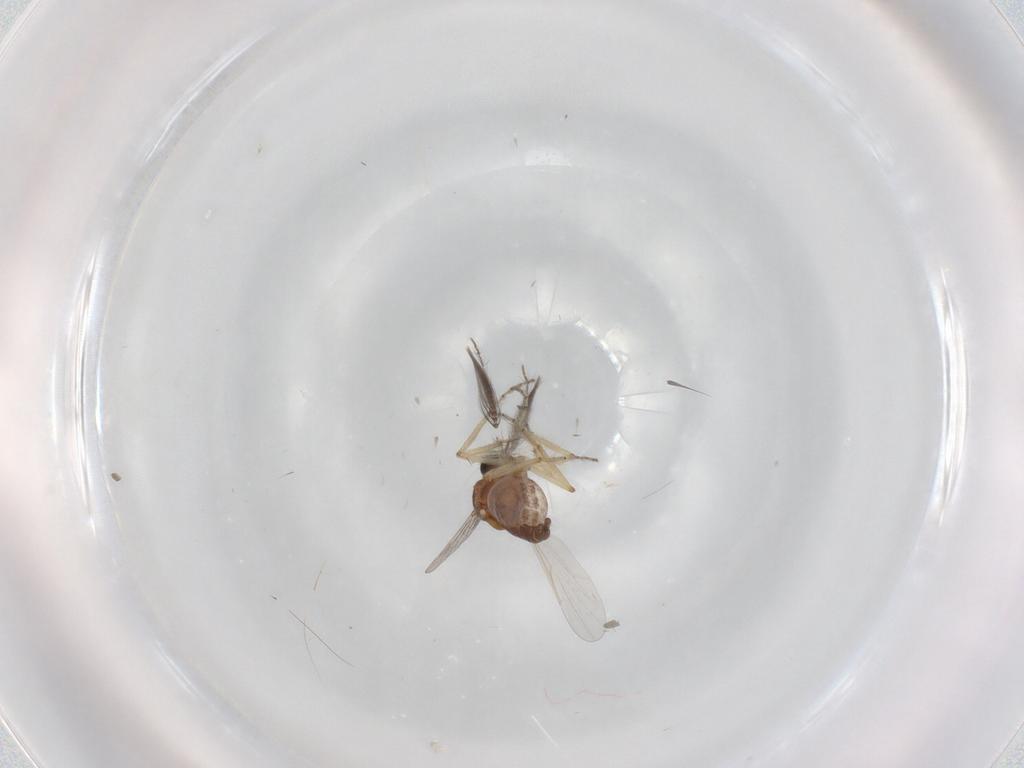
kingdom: Animalia
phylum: Arthropoda
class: Insecta
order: Diptera
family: Ceratopogonidae
